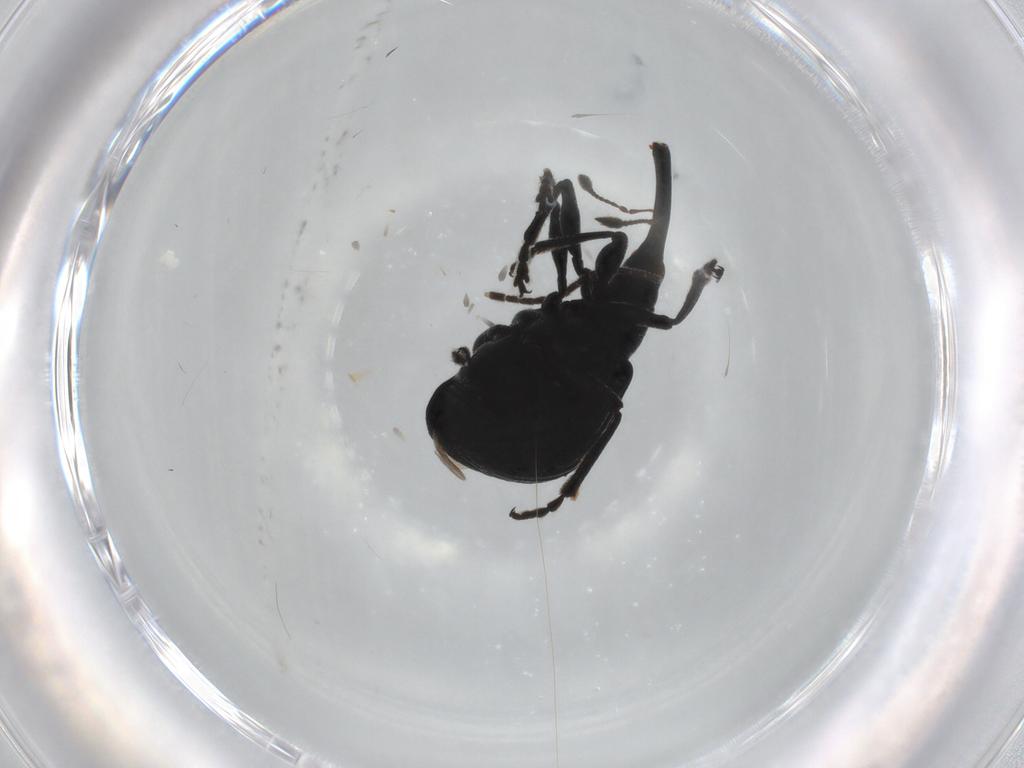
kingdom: Animalia
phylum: Arthropoda
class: Insecta
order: Coleoptera
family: Brentidae
